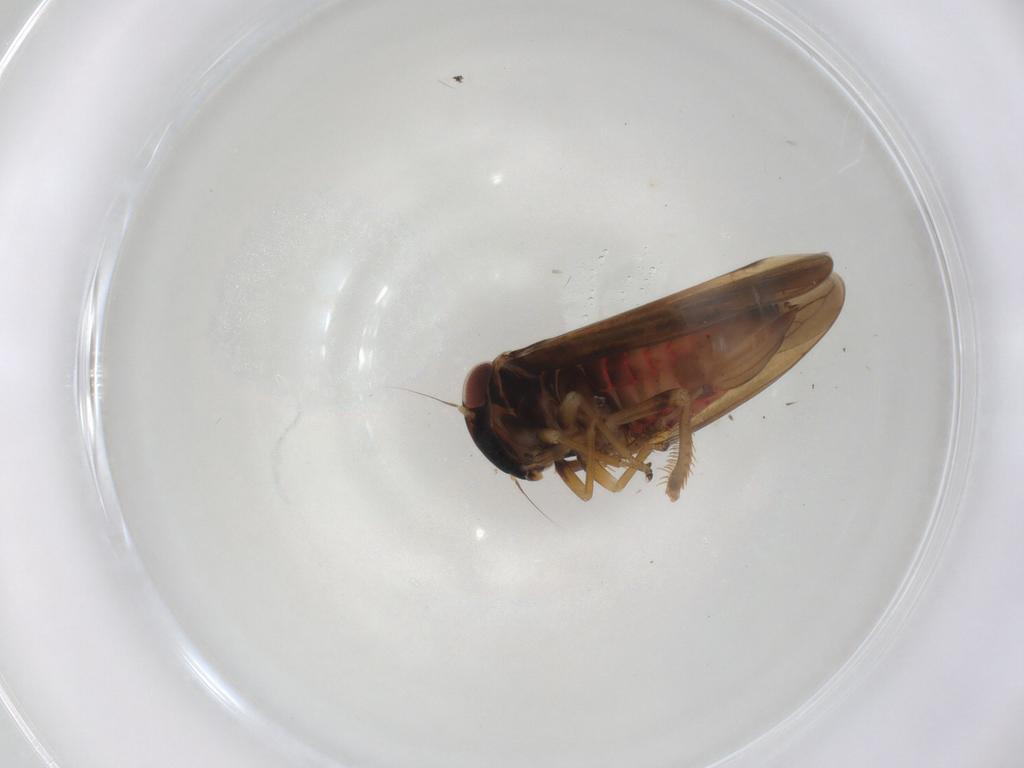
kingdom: Animalia
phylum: Arthropoda
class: Insecta
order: Hemiptera
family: Cicadellidae
